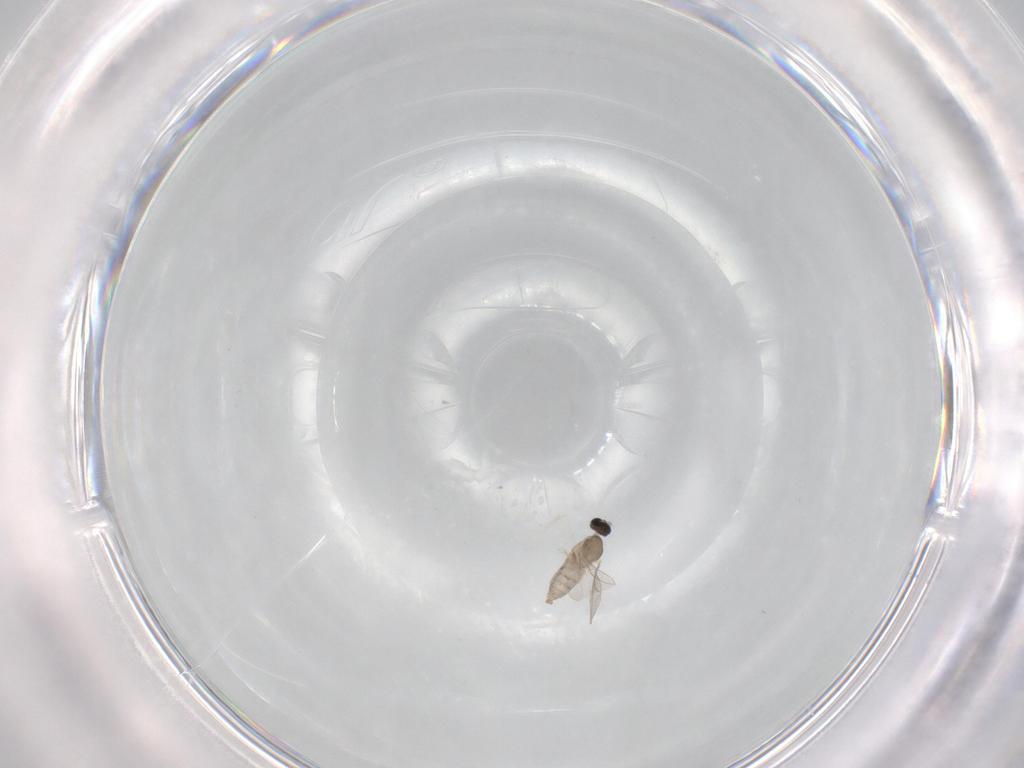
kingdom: Animalia
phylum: Arthropoda
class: Insecta
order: Diptera
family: Cecidomyiidae
